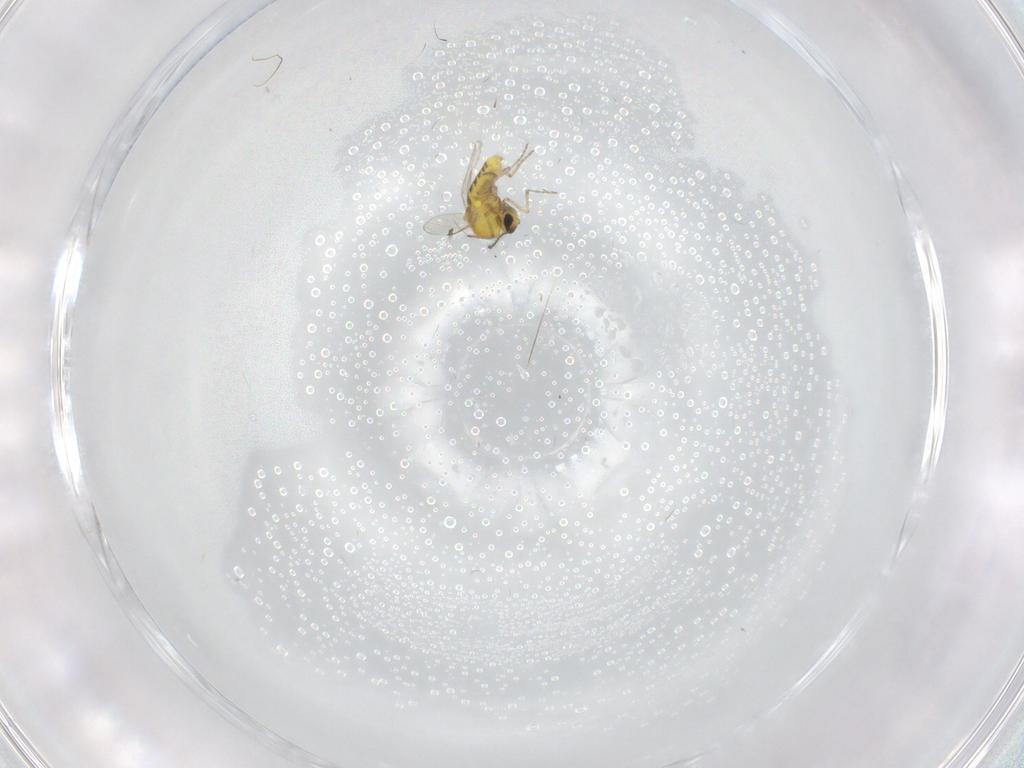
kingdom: Animalia
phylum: Arthropoda
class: Insecta
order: Diptera
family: Ceratopogonidae
